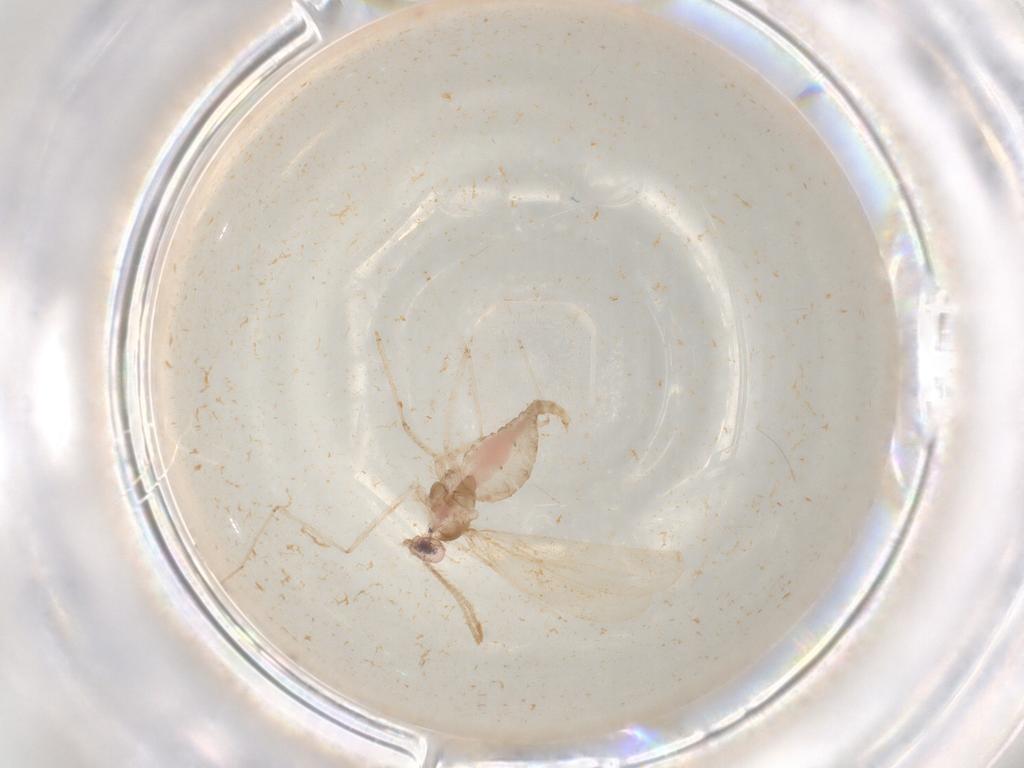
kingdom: Animalia
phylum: Arthropoda
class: Insecta
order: Diptera
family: Cecidomyiidae
